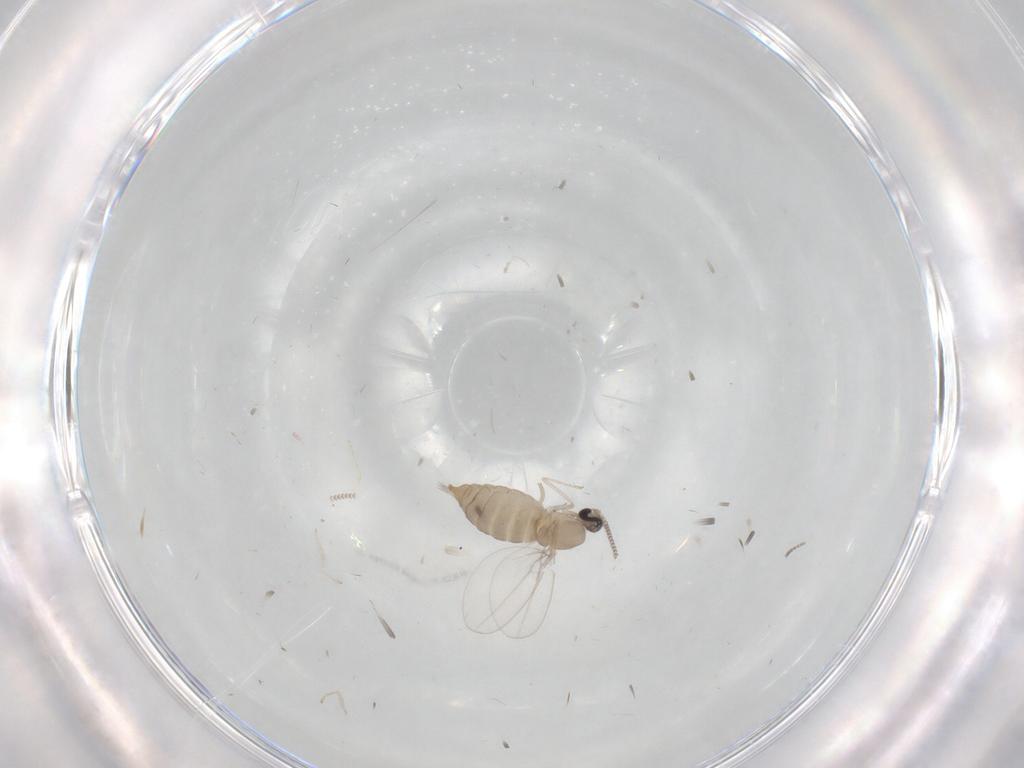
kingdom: Animalia
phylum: Arthropoda
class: Insecta
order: Diptera
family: Cecidomyiidae
